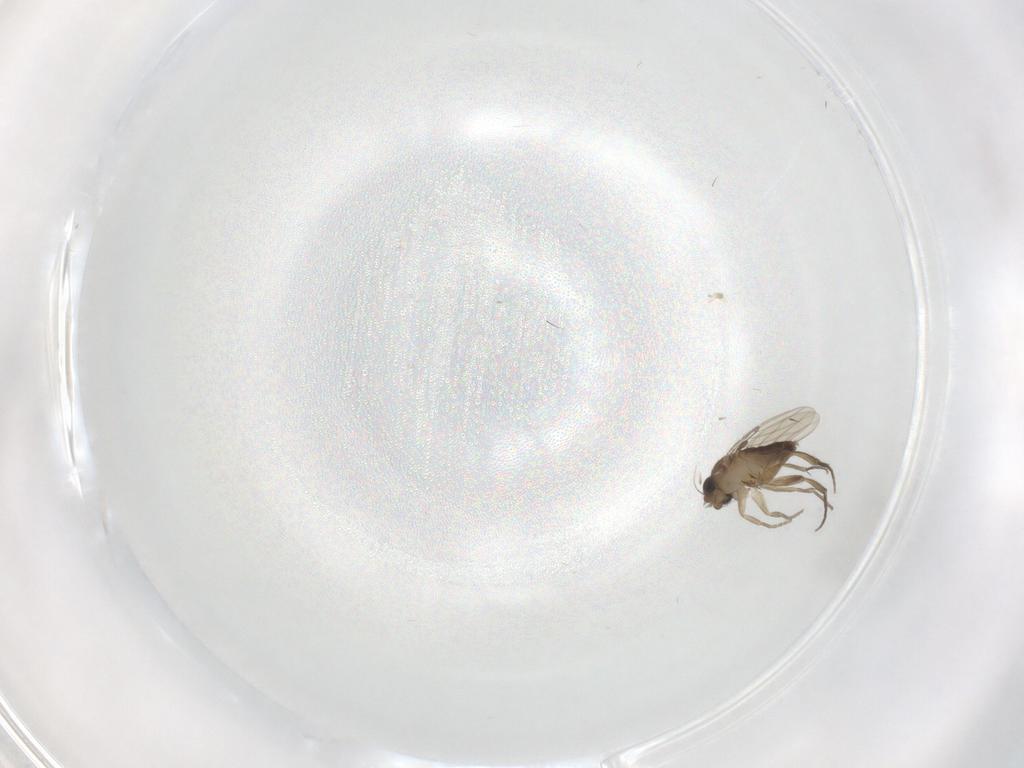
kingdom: Animalia
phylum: Arthropoda
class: Insecta
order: Diptera
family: Phoridae
